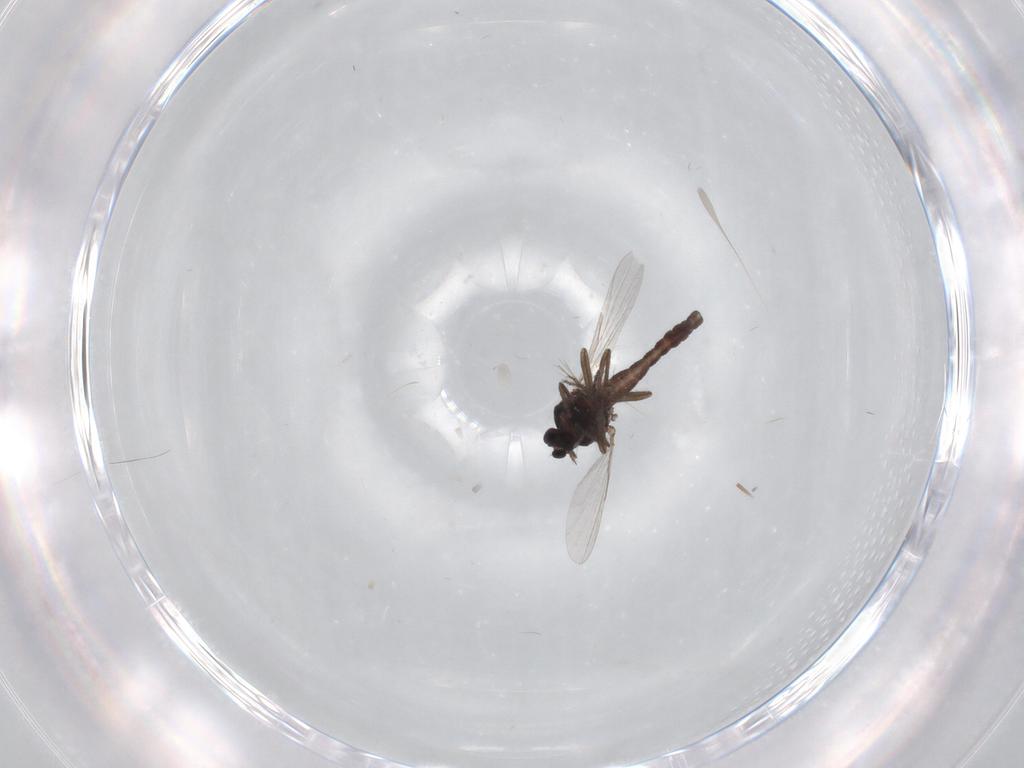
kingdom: Animalia
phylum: Arthropoda
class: Insecta
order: Diptera
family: Ceratopogonidae
